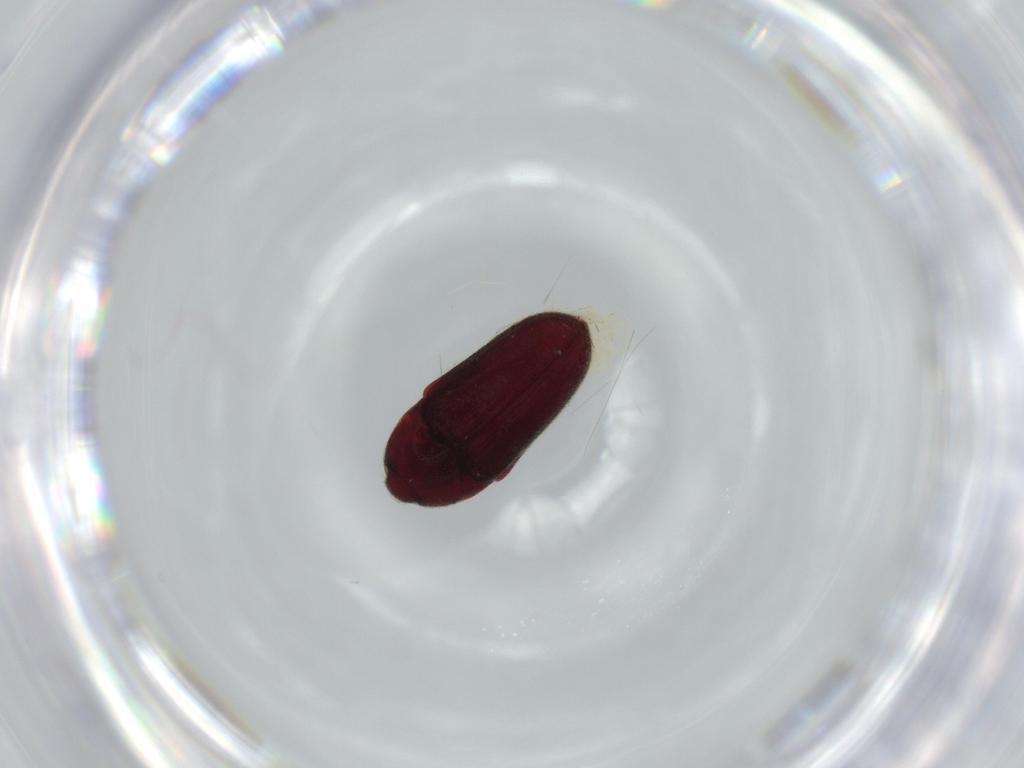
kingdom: Animalia
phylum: Arthropoda
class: Insecta
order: Coleoptera
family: Throscidae
